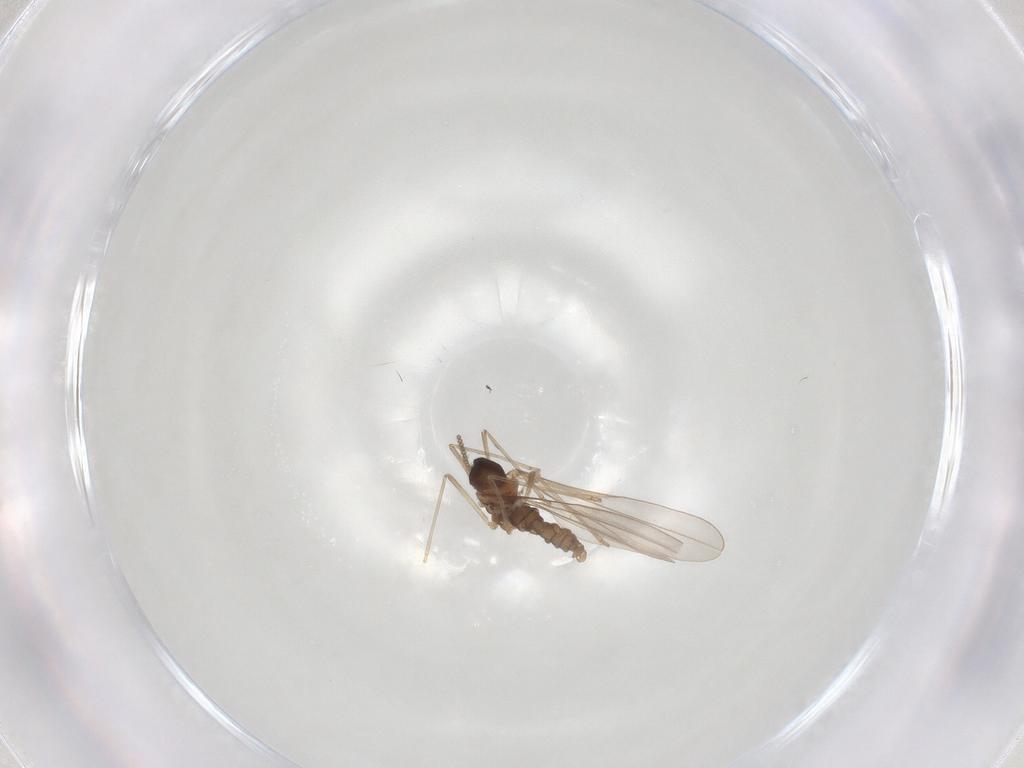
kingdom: Animalia
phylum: Arthropoda
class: Insecta
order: Diptera
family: Cecidomyiidae
